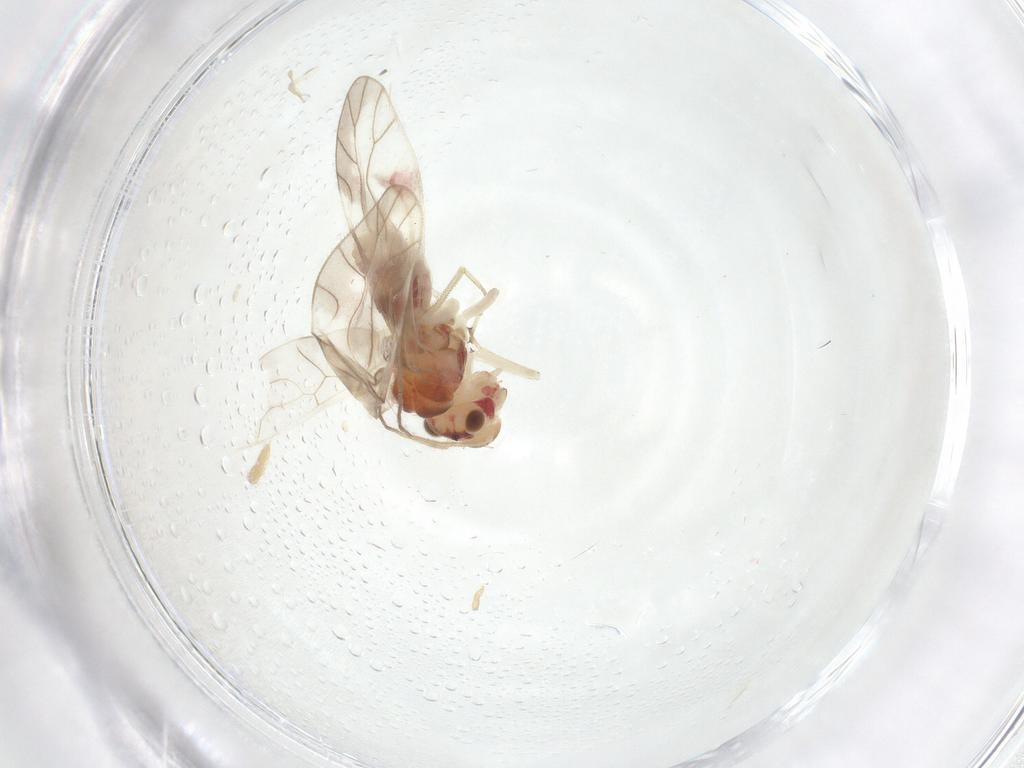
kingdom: Animalia
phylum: Arthropoda
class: Insecta
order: Psocodea
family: Caeciliusidae
